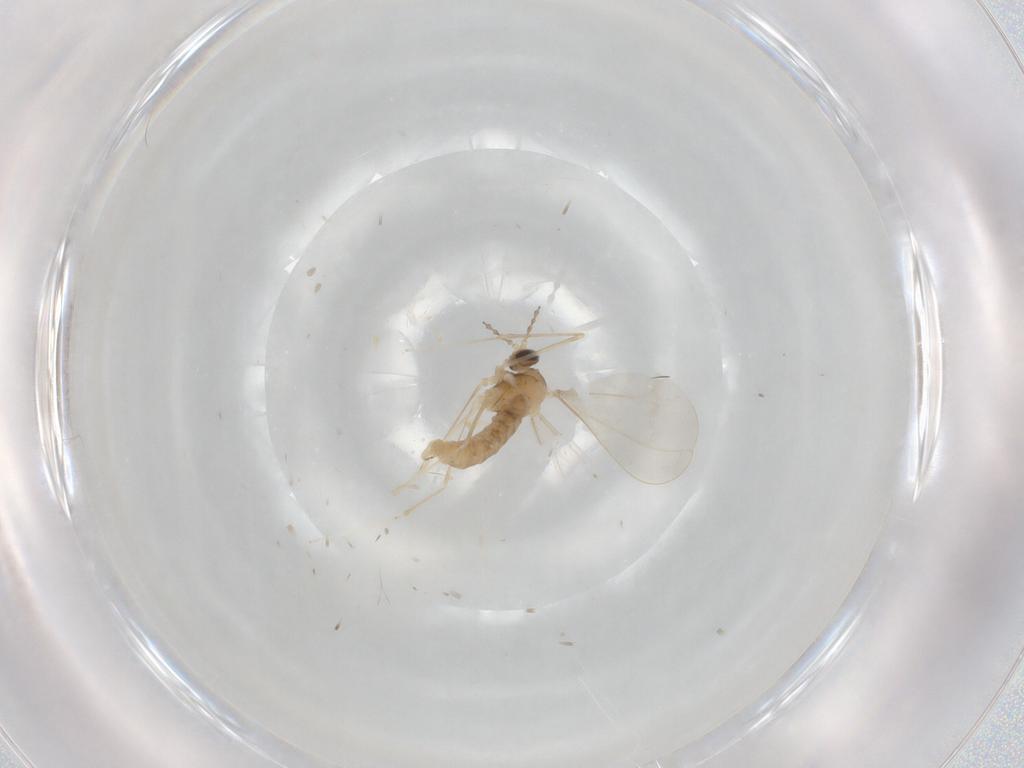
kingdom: Animalia
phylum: Arthropoda
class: Insecta
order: Diptera
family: Cecidomyiidae
